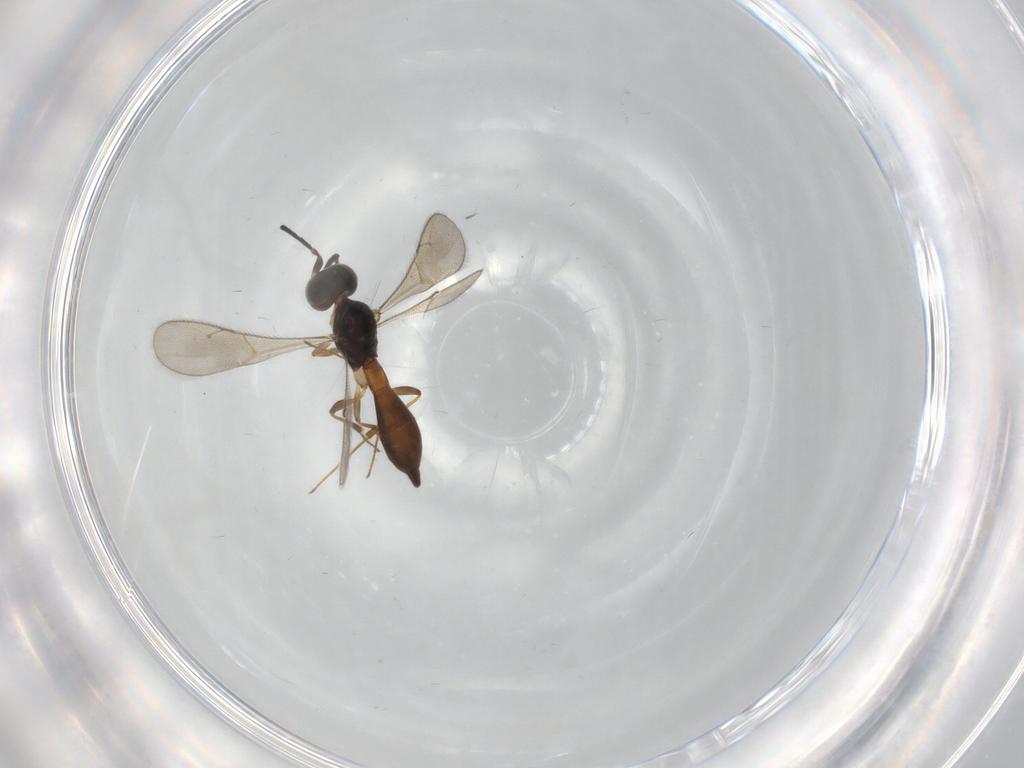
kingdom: Animalia
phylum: Arthropoda
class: Insecta
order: Hymenoptera
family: Scelionidae
